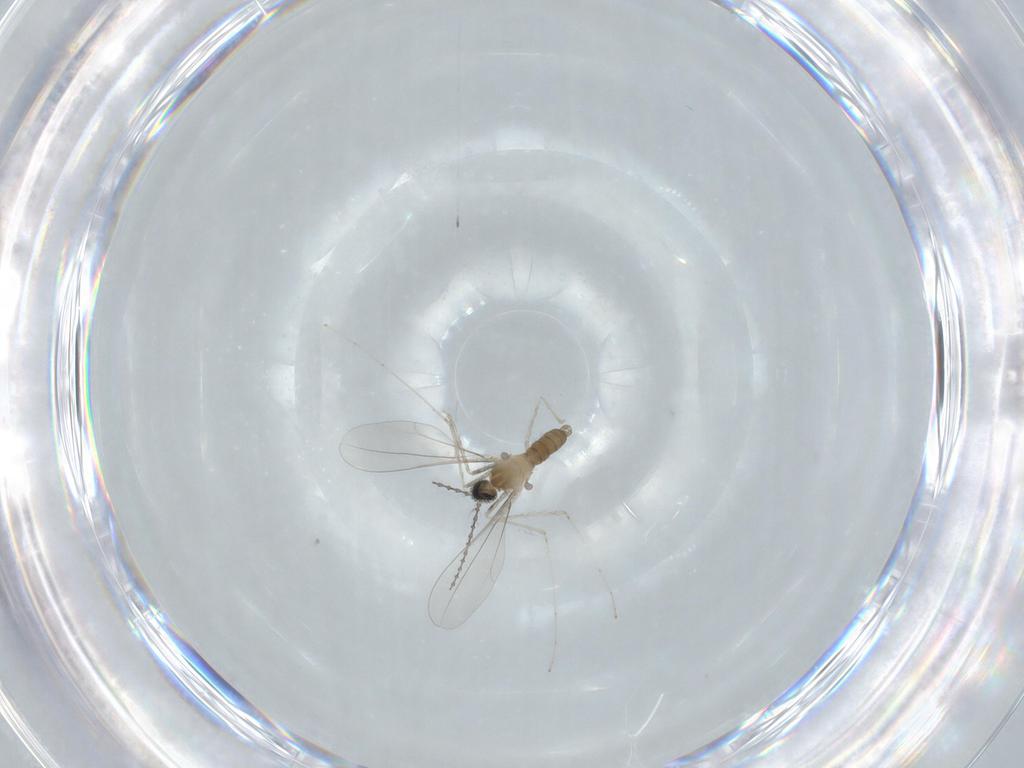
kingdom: Animalia
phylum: Arthropoda
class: Insecta
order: Diptera
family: Cecidomyiidae
